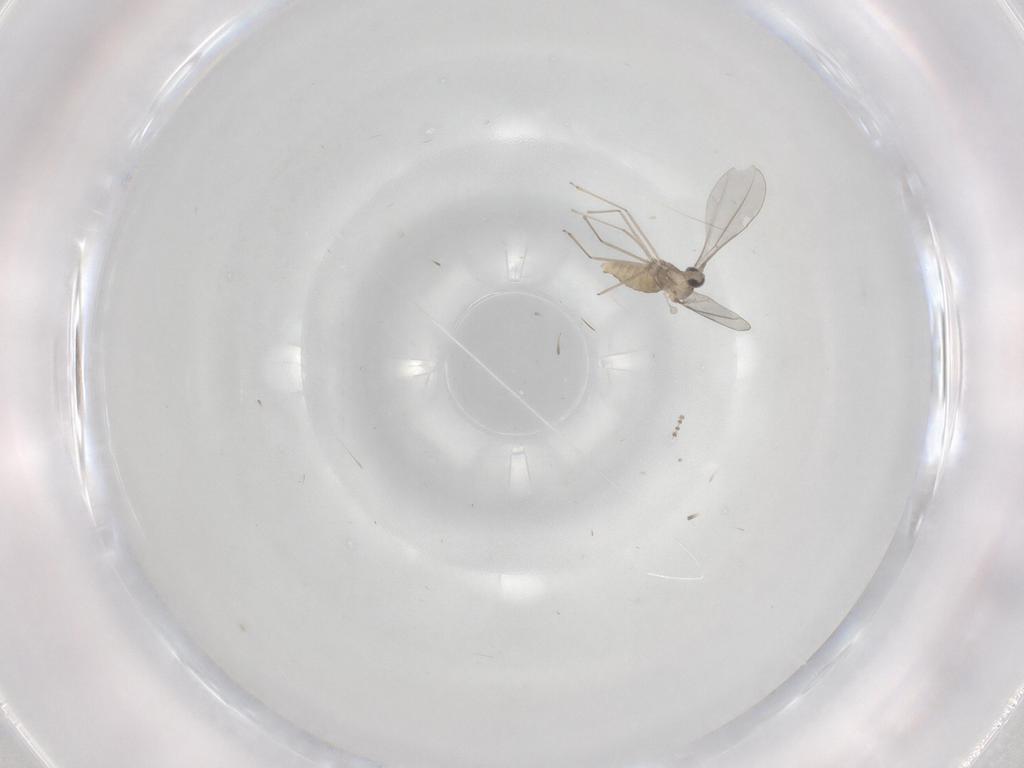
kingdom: Animalia
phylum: Arthropoda
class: Insecta
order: Diptera
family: Psychodidae
